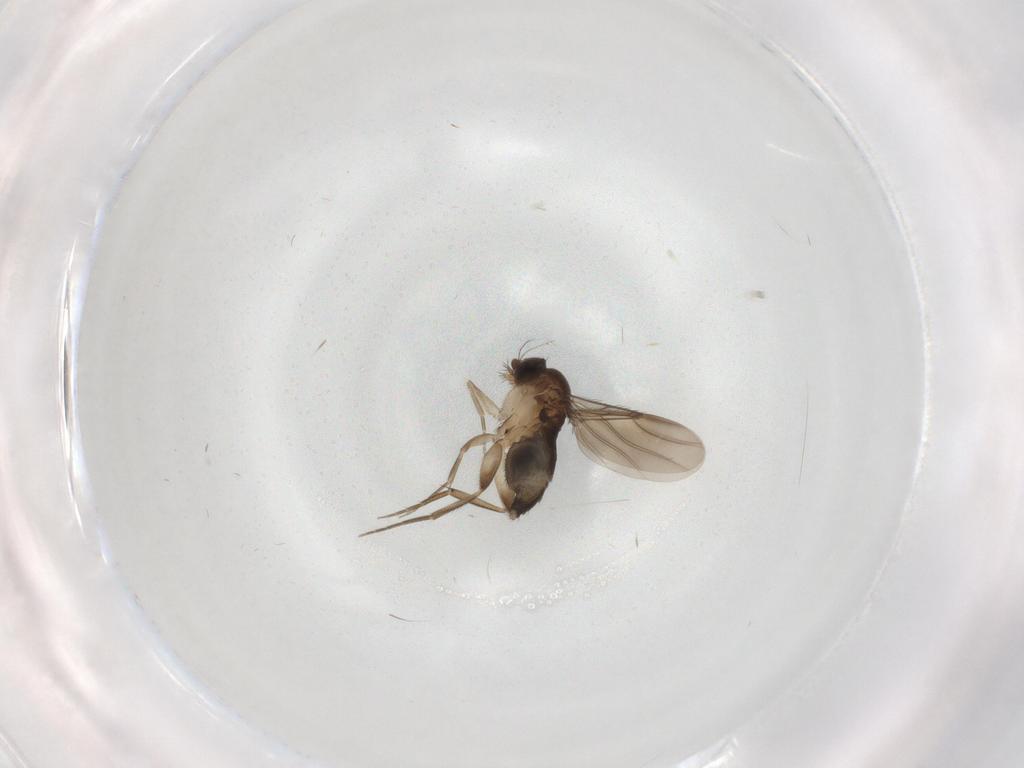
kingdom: Animalia
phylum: Arthropoda
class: Insecta
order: Diptera
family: Phoridae
